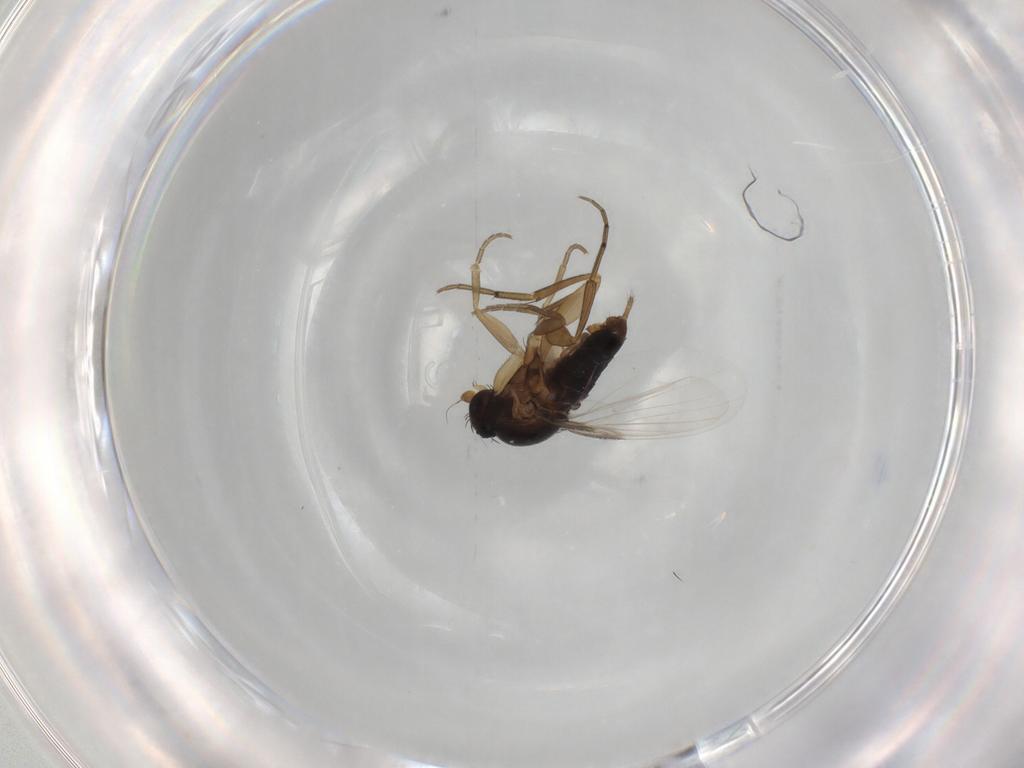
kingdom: Animalia
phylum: Arthropoda
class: Insecta
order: Diptera
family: Phoridae
